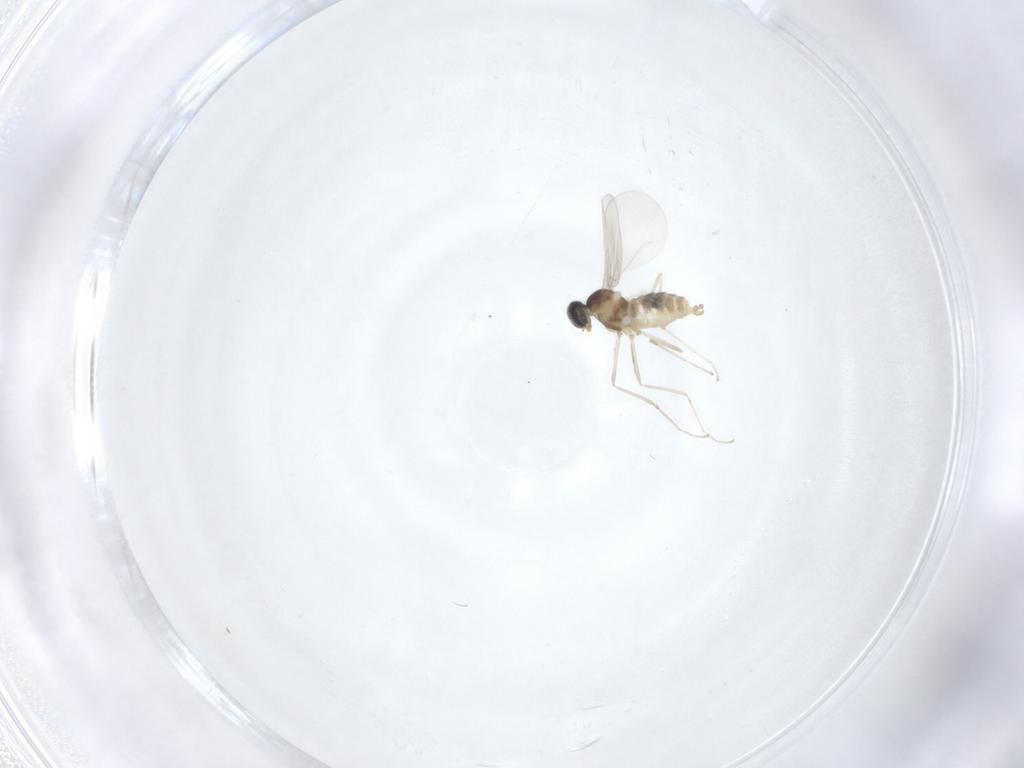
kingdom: Animalia
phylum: Arthropoda
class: Insecta
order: Diptera
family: Cecidomyiidae
